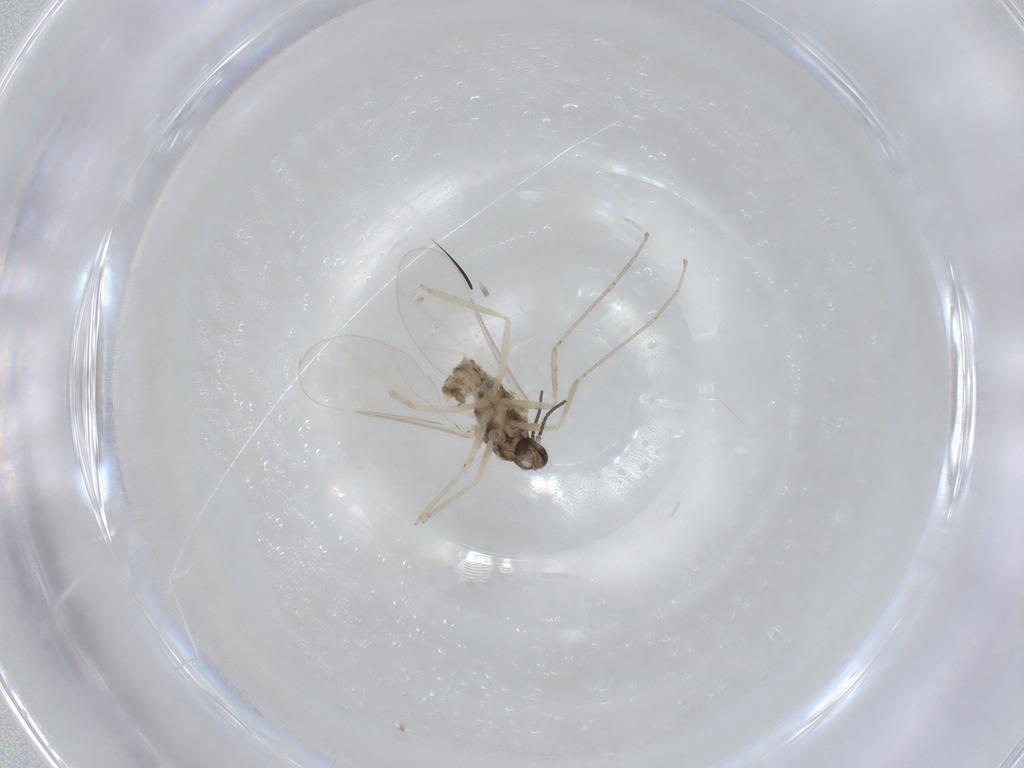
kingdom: Animalia
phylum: Arthropoda
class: Insecta
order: Diptera
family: Cecidomyiidae
